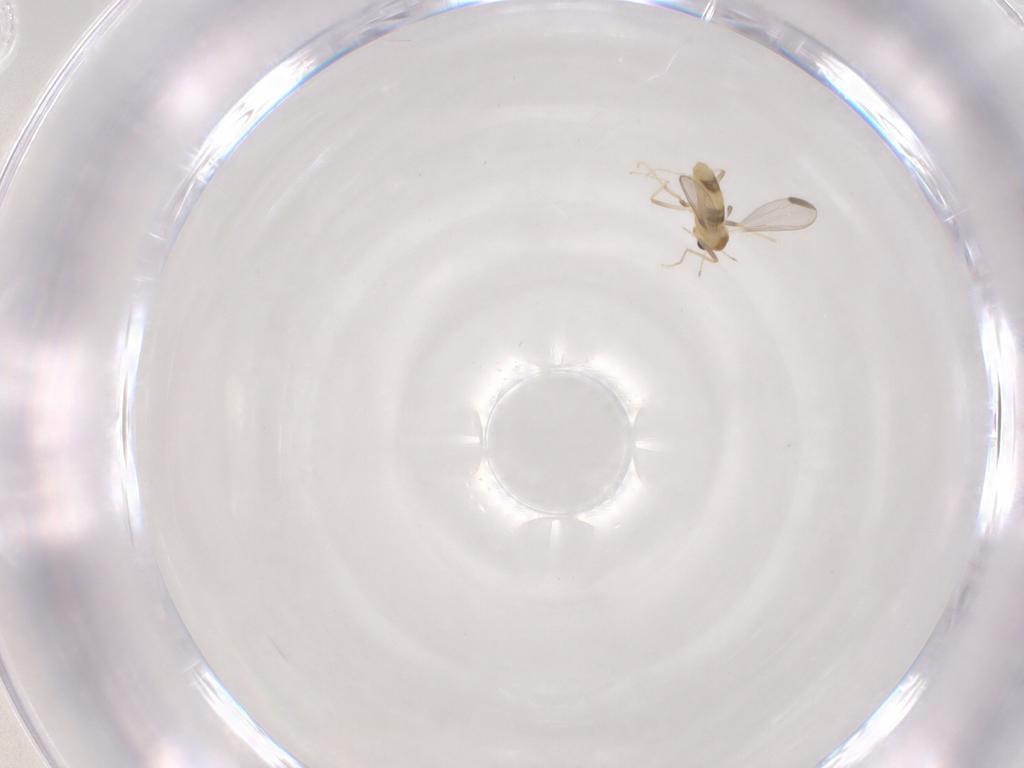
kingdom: Animalia
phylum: Arthropoda
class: Insecta
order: Diptera
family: Chironomidae
